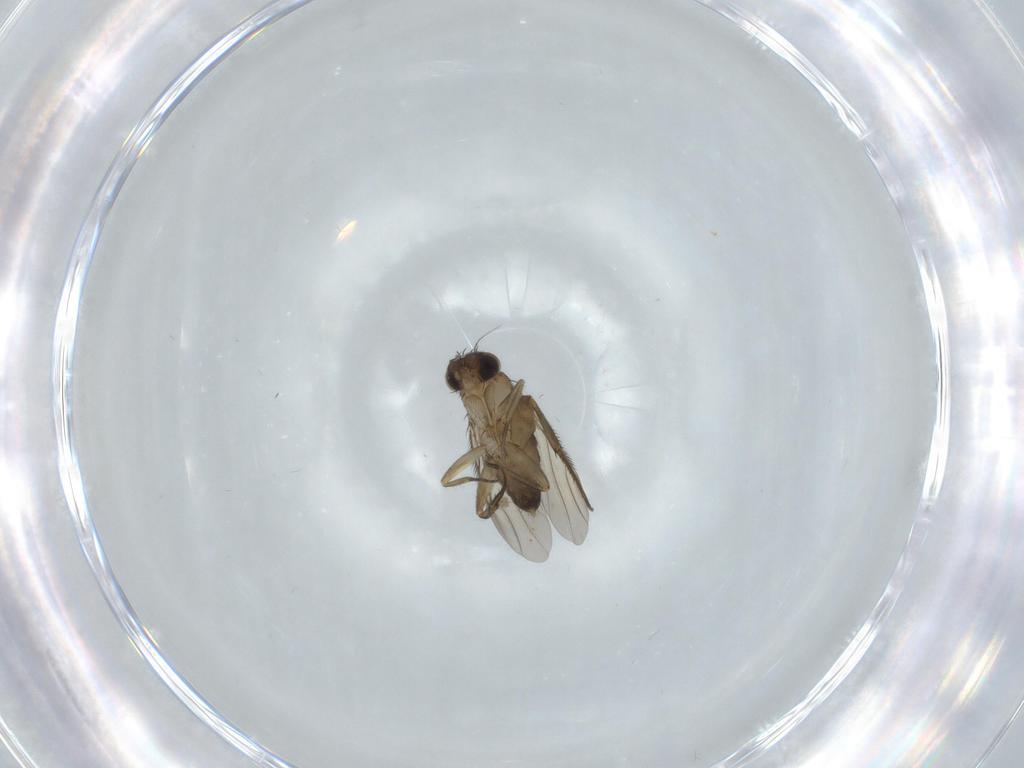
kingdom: Animalia
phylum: Arthropoda
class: Insecta
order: Diptera
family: Phoridae
